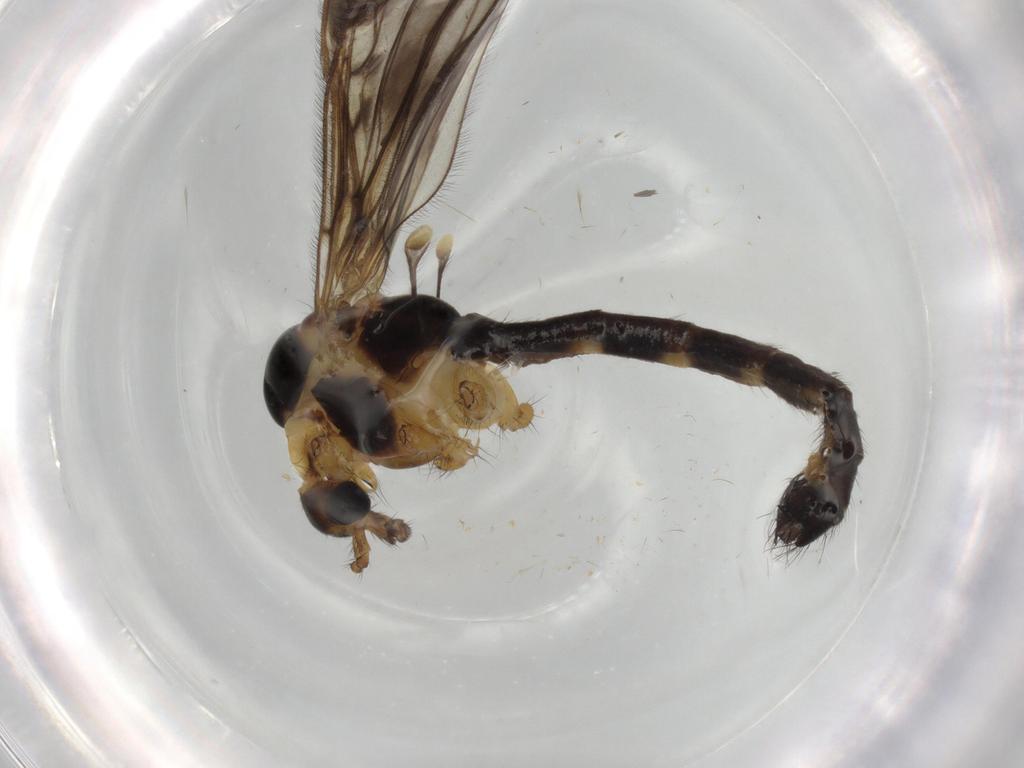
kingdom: Animalia
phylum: Arthropoda
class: Insecta
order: Diptera
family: Limoniidae
